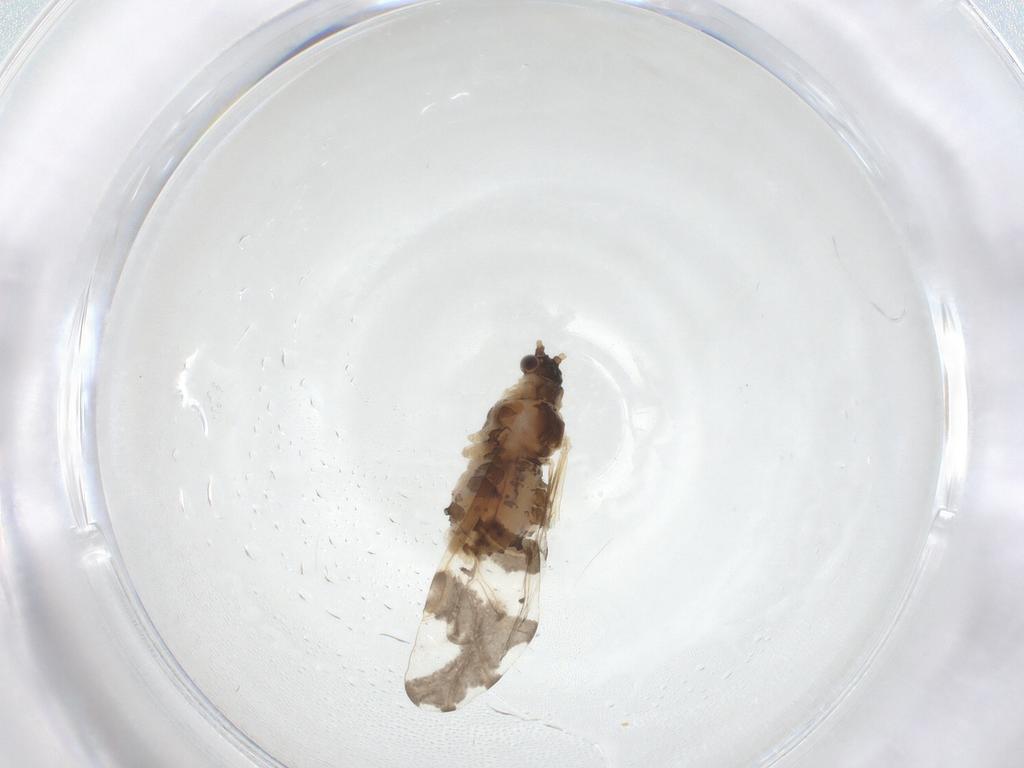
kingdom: Animalia
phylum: Arthropoda
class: Insecta
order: Hemiptera
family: Aphididae
